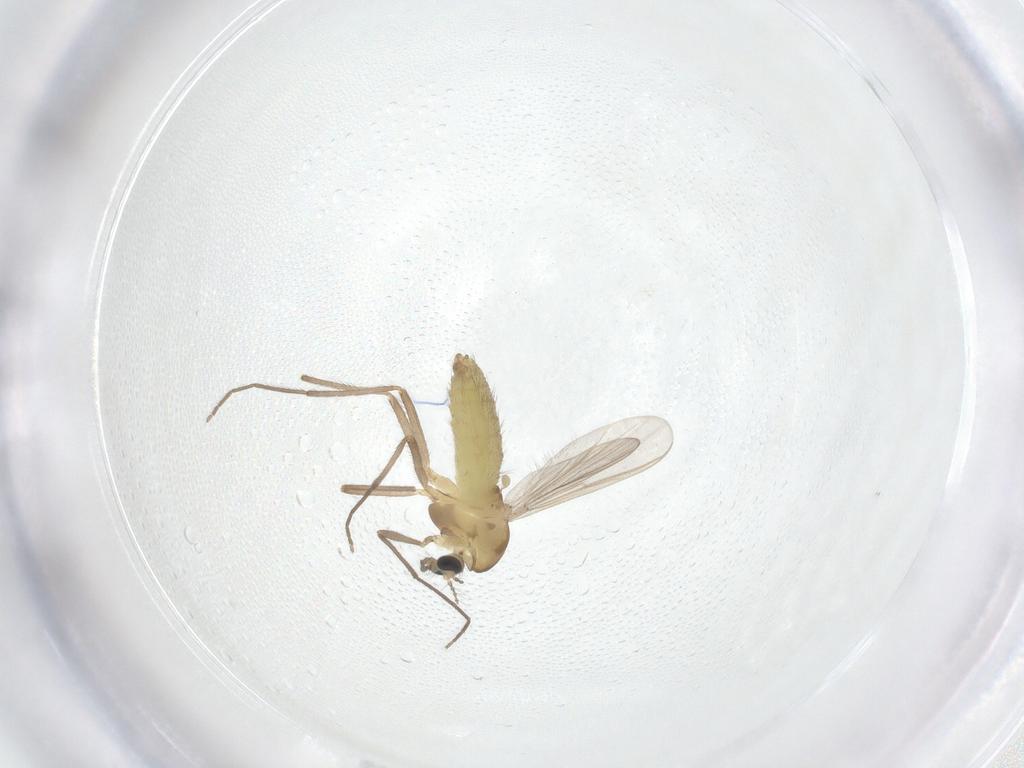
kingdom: Animalia
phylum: Arthropoda
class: Insecta
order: Diptera
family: Chironomidae
